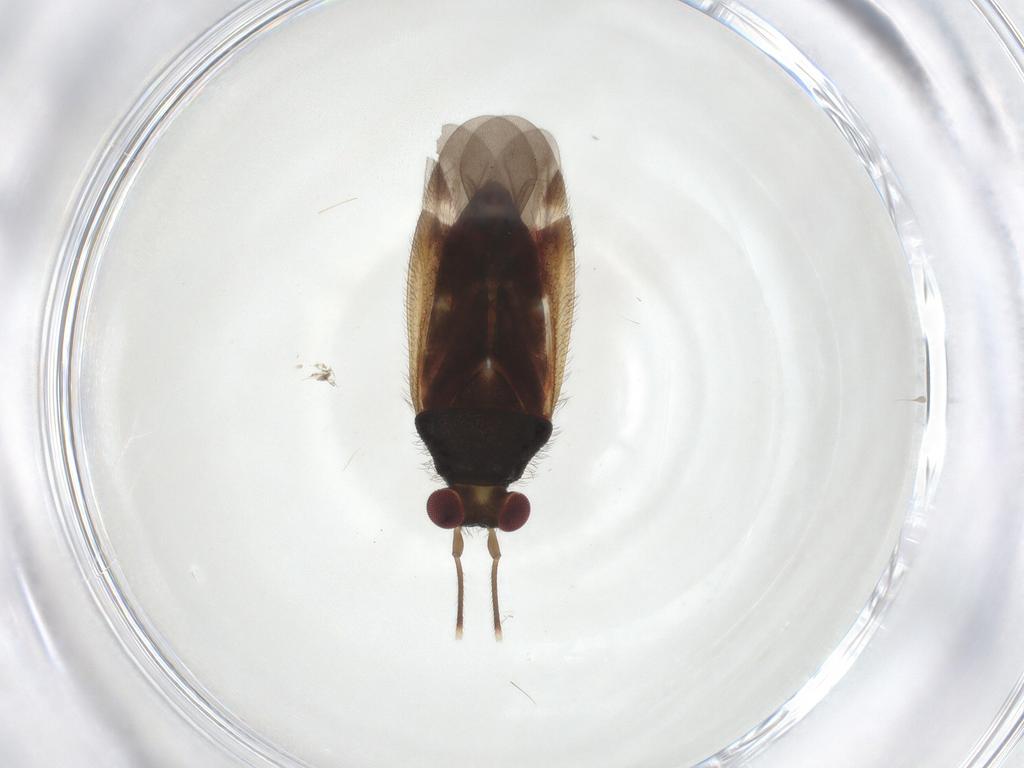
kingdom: Animalia
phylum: Arthropoda
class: Insecta
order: Hemiptera
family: Miridae
